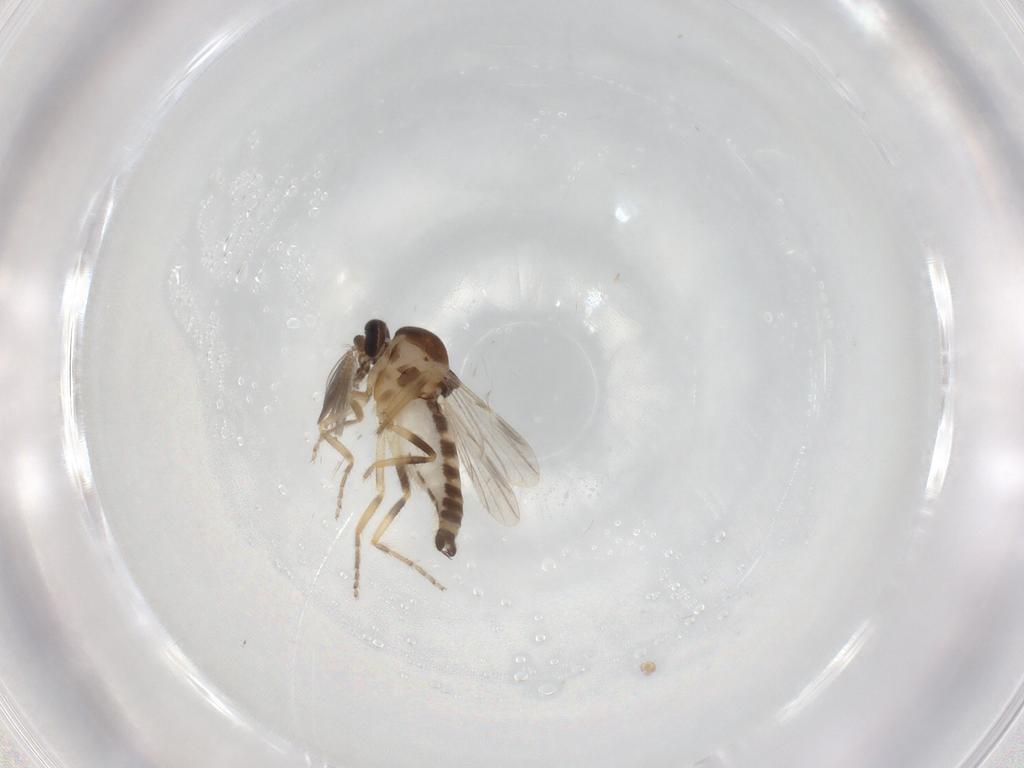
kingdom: Animalia
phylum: Arthropoda
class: Insecta
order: Diptera
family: Ceratopogonidae
